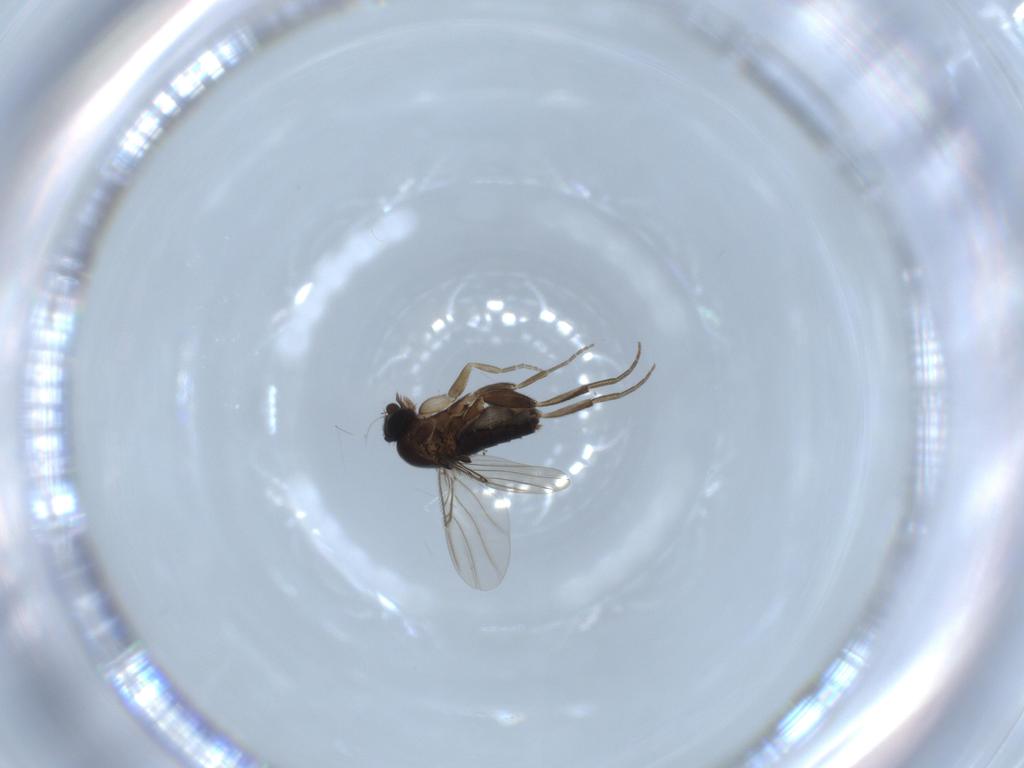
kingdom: Animalia
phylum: Arthropoda
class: Insecta
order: Diptera
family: Phoridae
